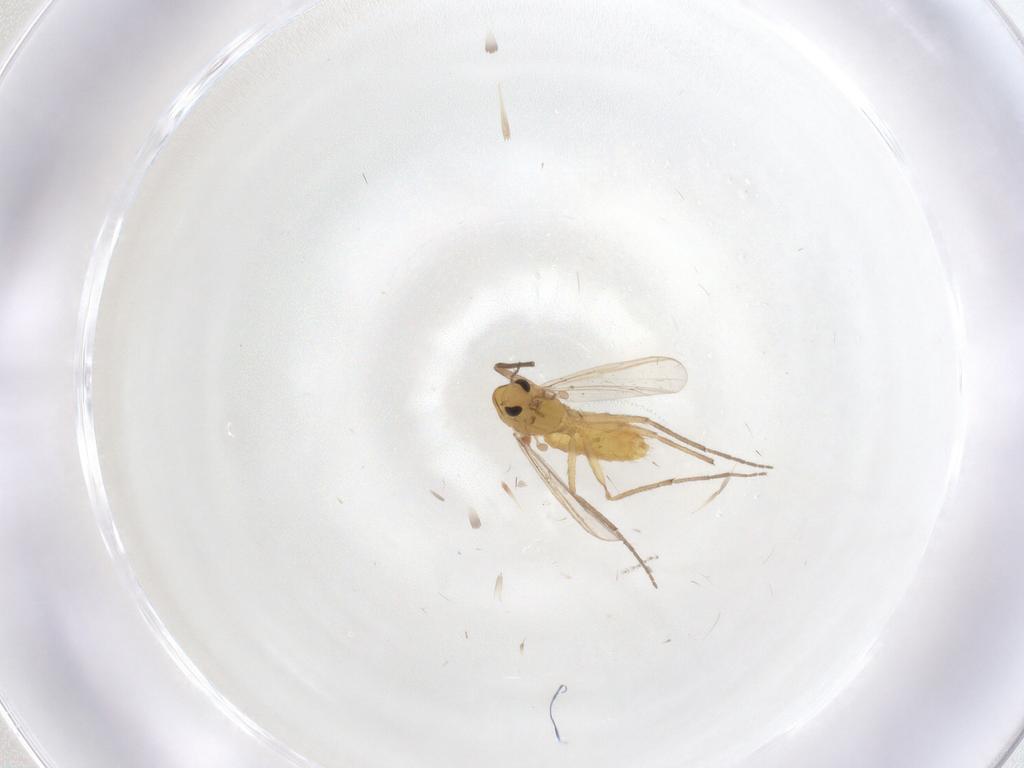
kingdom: Animalia
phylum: Arthropoda
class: Insecta
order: Diptera
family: Chironomidae
